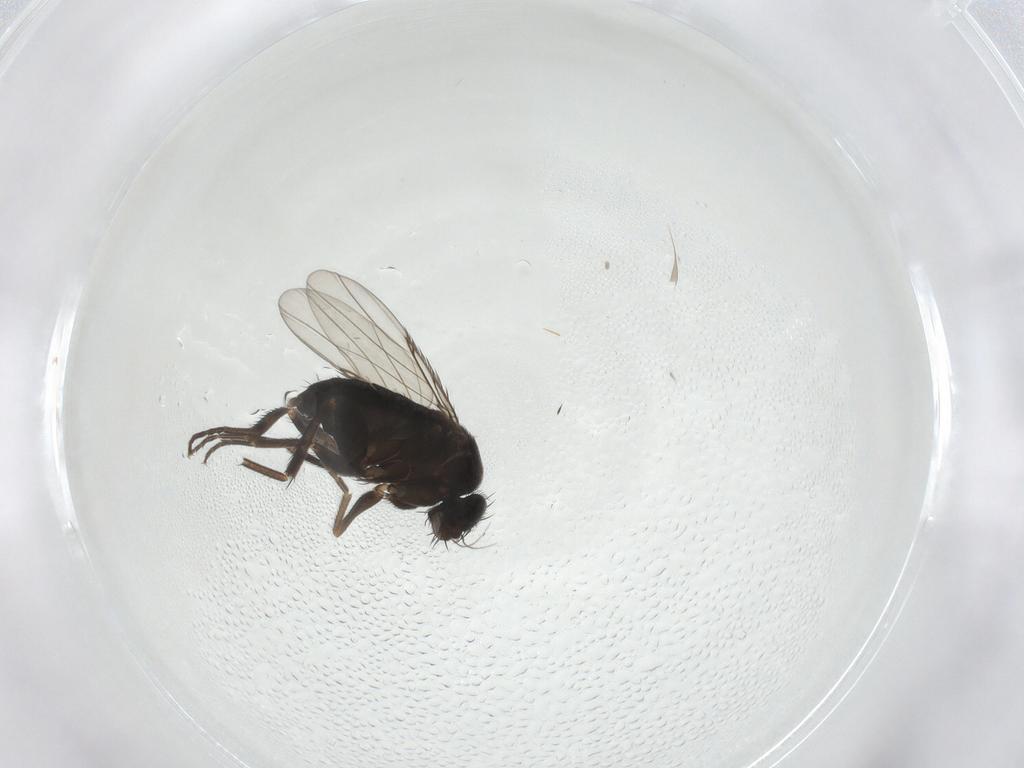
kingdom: Animalia
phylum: Arthropoda
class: Insecta
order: Diptera
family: Phoridae
